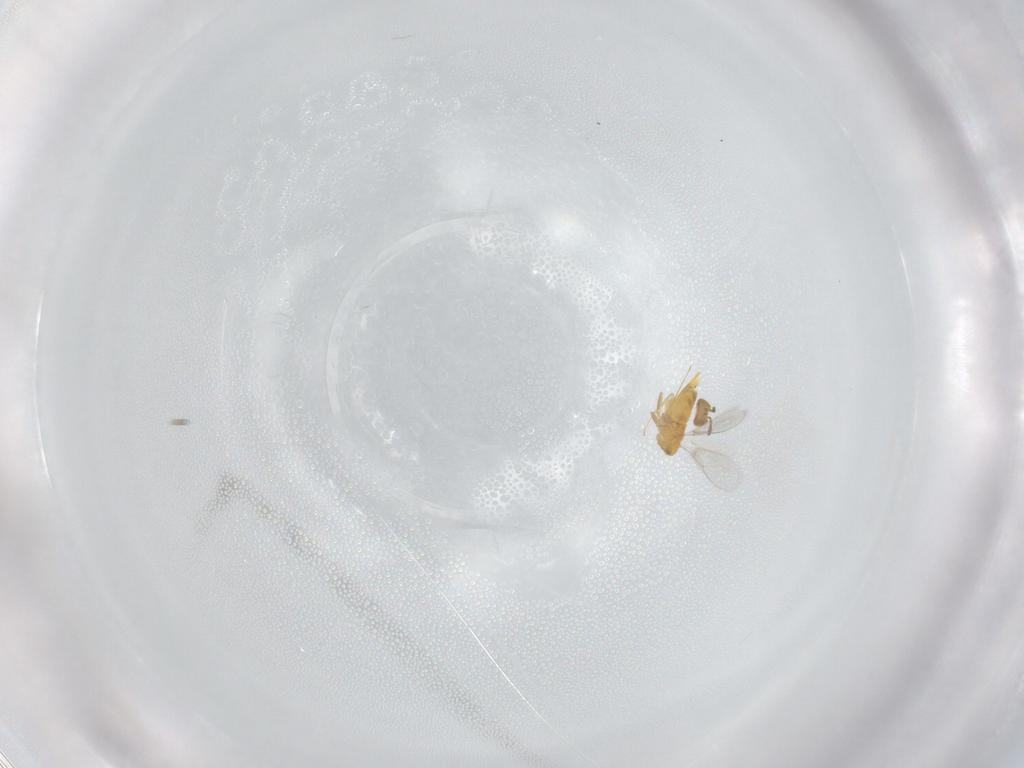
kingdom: Animalia
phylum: Arthropoda
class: Insecta
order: Hymenoptera
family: Aphelinidae
